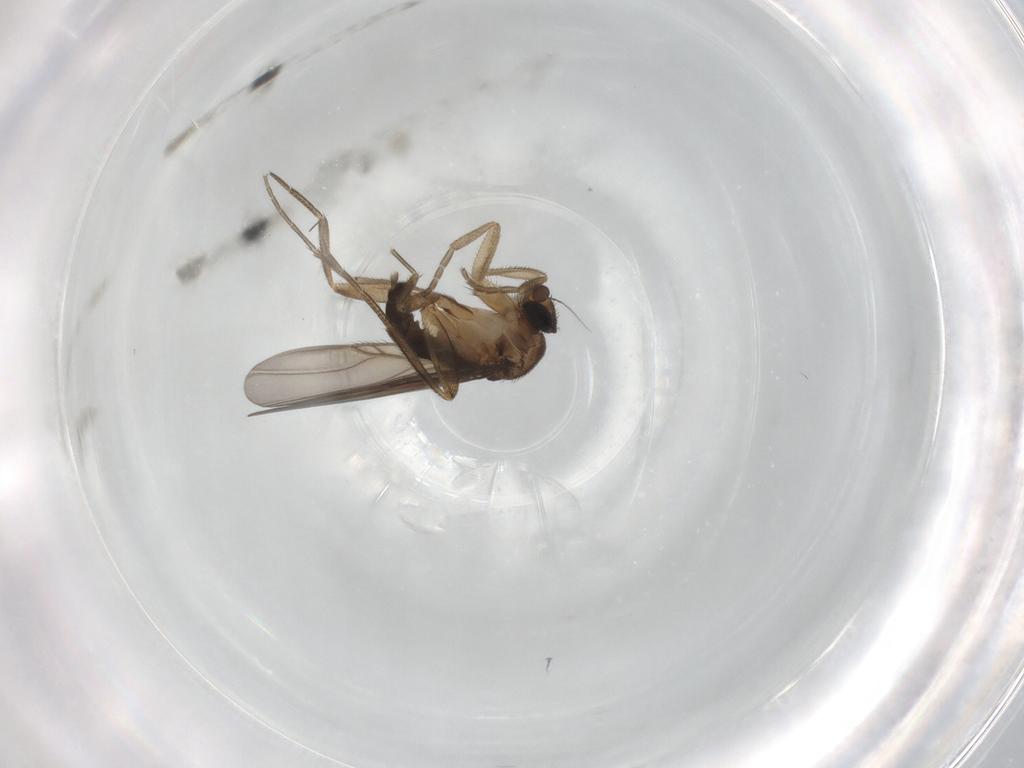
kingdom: Animalia
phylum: Arthropoda
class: Insecta
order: Diptera
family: Phoridae
